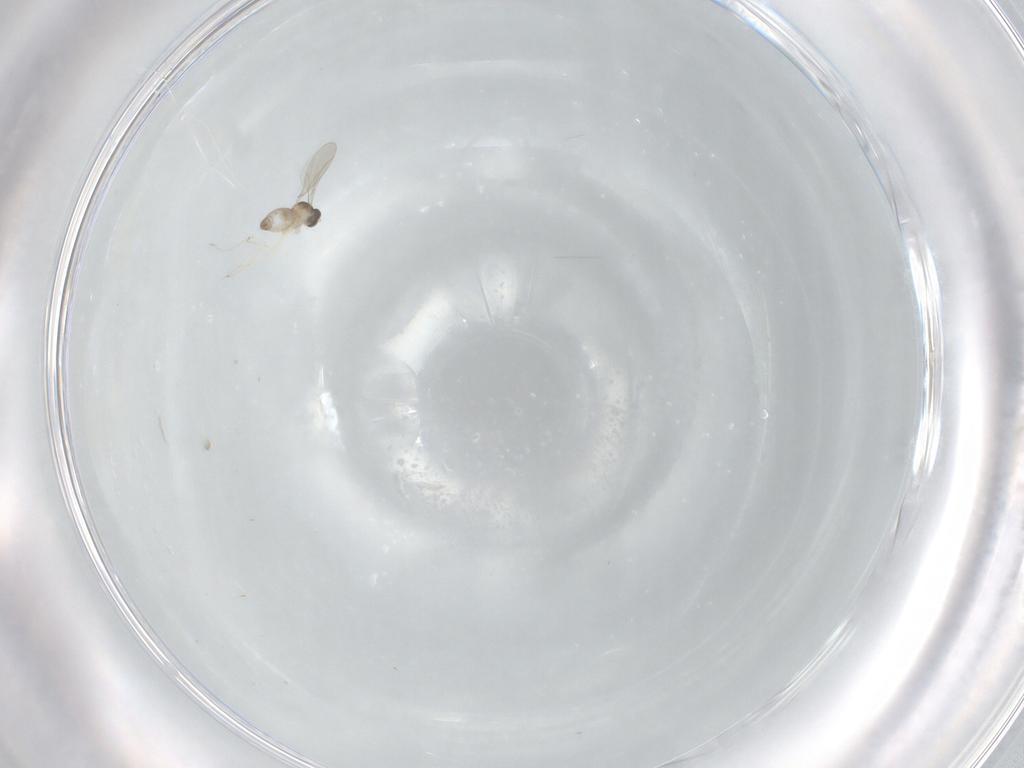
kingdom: Animalia
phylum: Arthropoda
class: Insecta
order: Diptera
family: Cecidomyiidae
